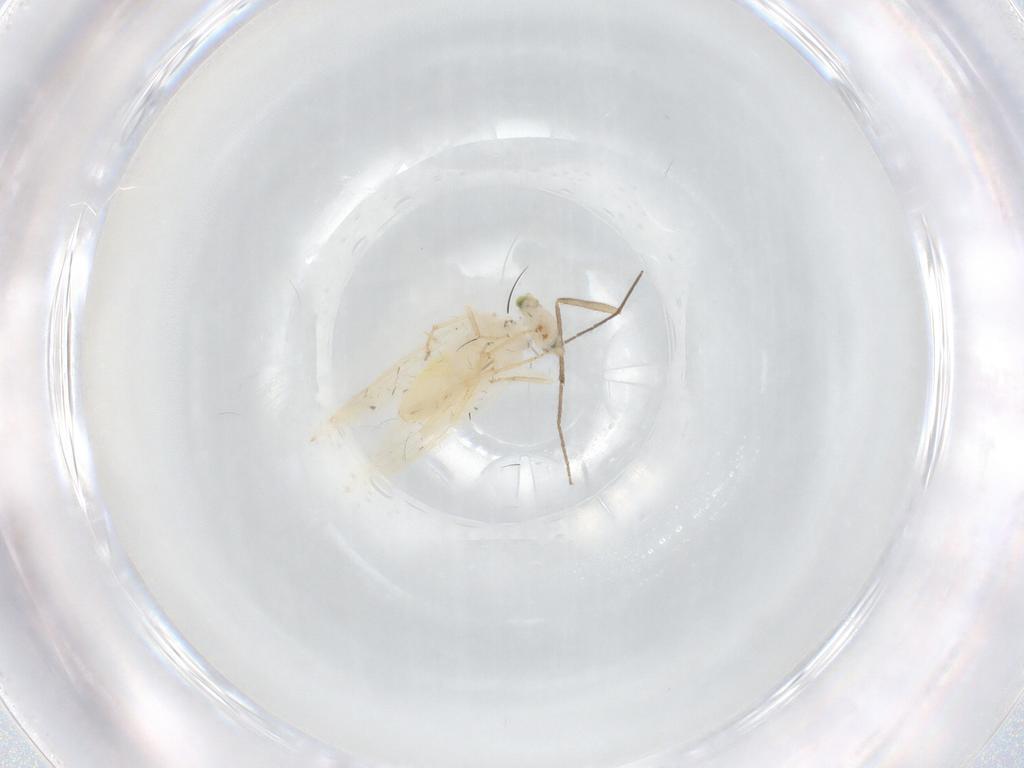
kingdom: Animalia
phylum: Arthropoda
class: Insecta
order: Psocodea
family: Lepidopsocidae
